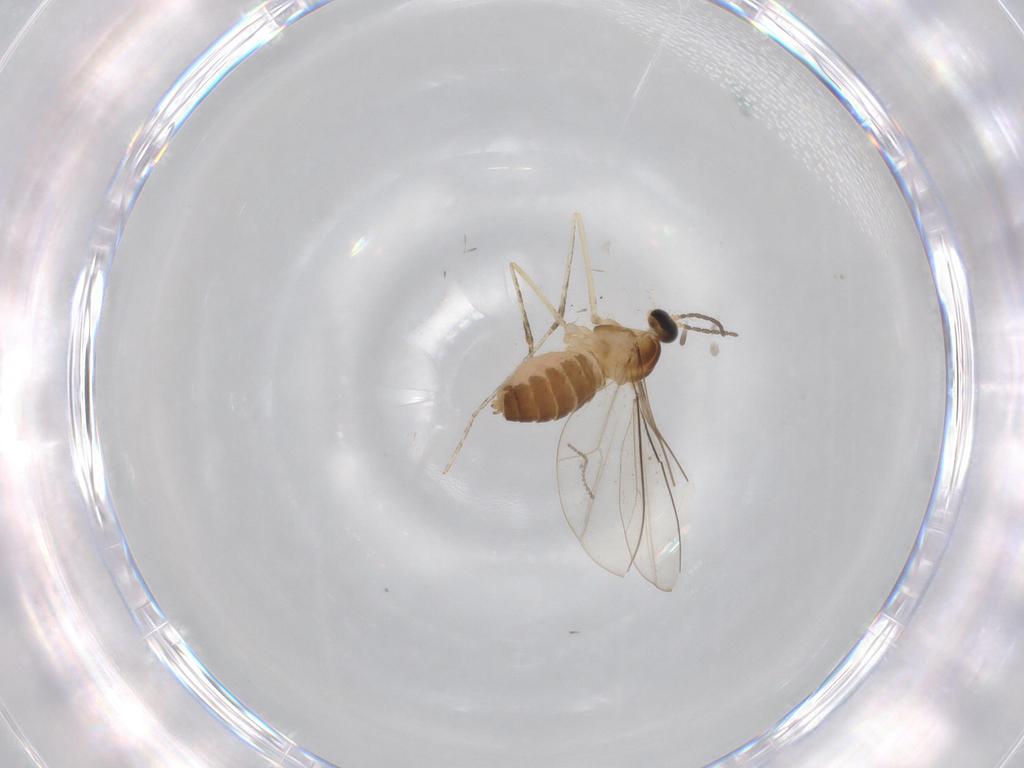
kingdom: Animalia
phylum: Arthropoda
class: Insecta
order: Diptera
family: Cecidomyiidae
